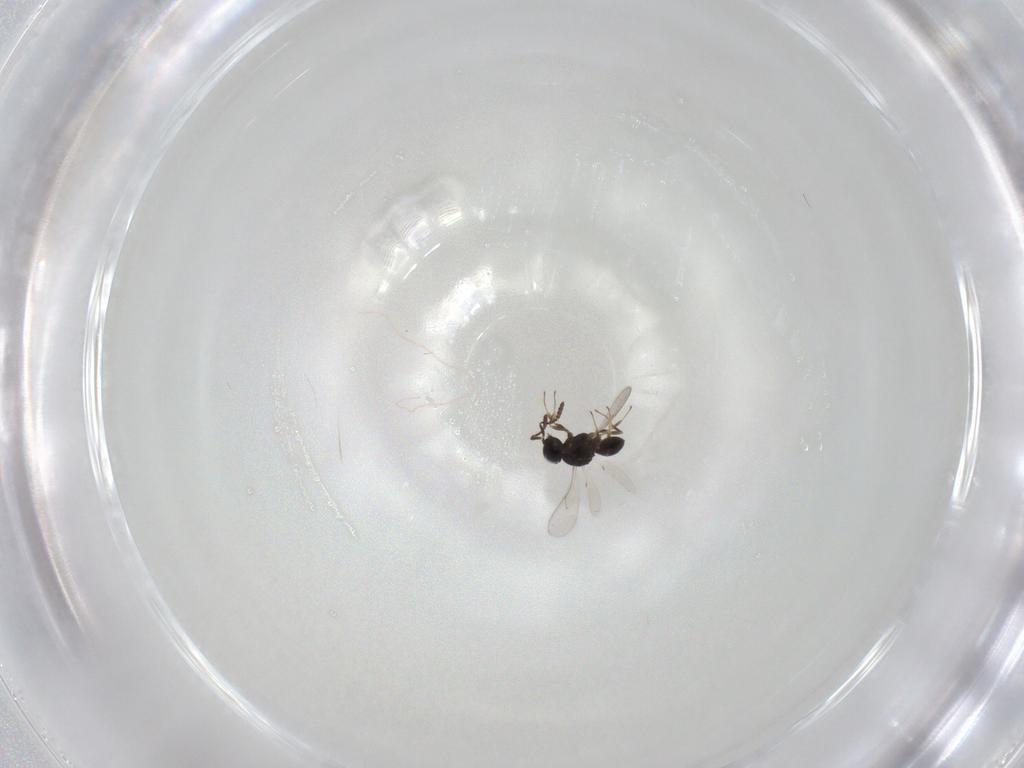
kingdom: Animalia
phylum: Arthropoda
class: Insecta
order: Hymenoptera
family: Scelionidae
